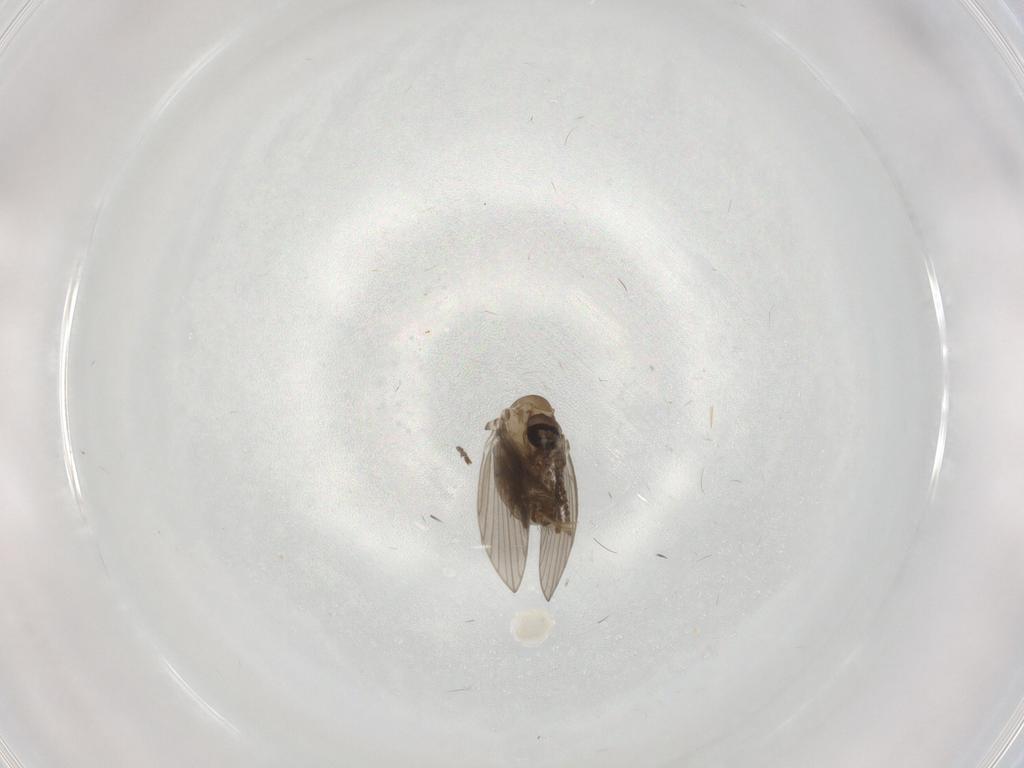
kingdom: Animalia
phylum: Arthropoda
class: Insecta
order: Diptera
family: Psychodidae
